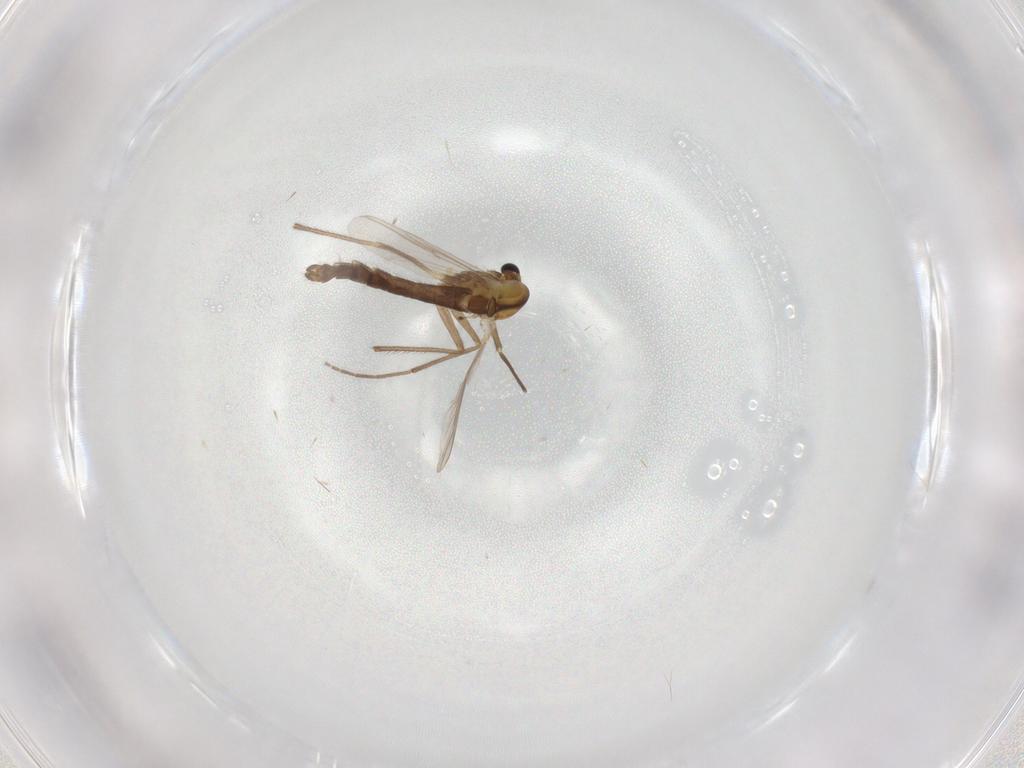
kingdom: Animalia
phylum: Arthropoda
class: Insecta
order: Diptera
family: Chironomidae
